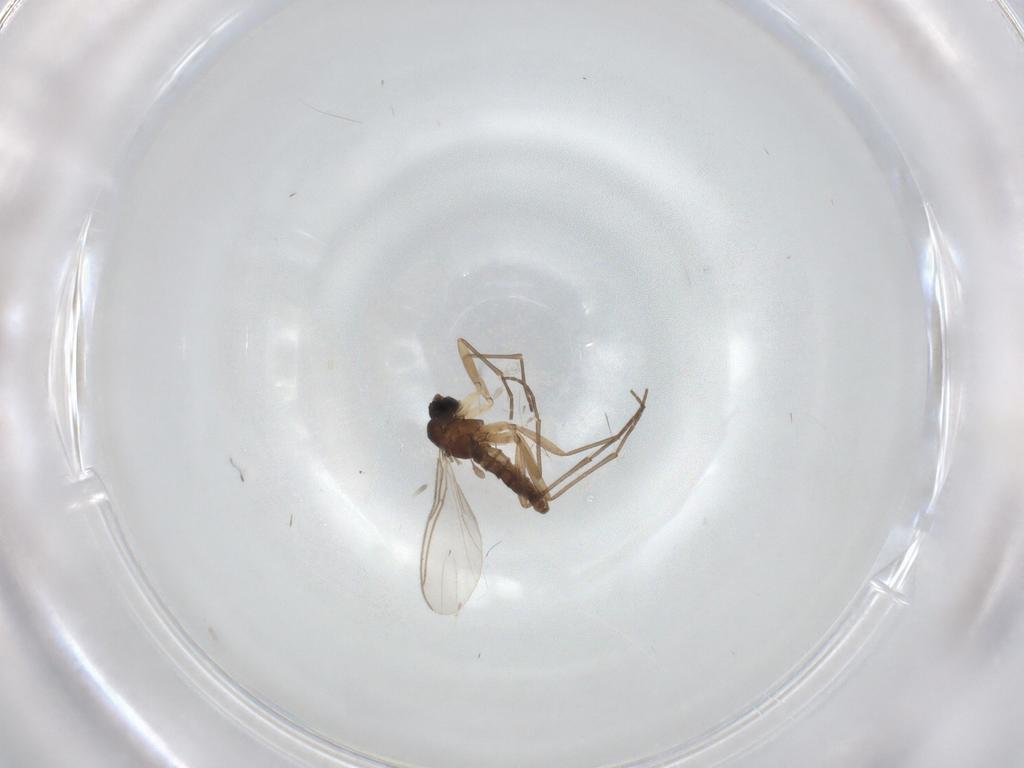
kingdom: Animalia
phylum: Arthropoda
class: Insecta
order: Diptera
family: Sciaridae
